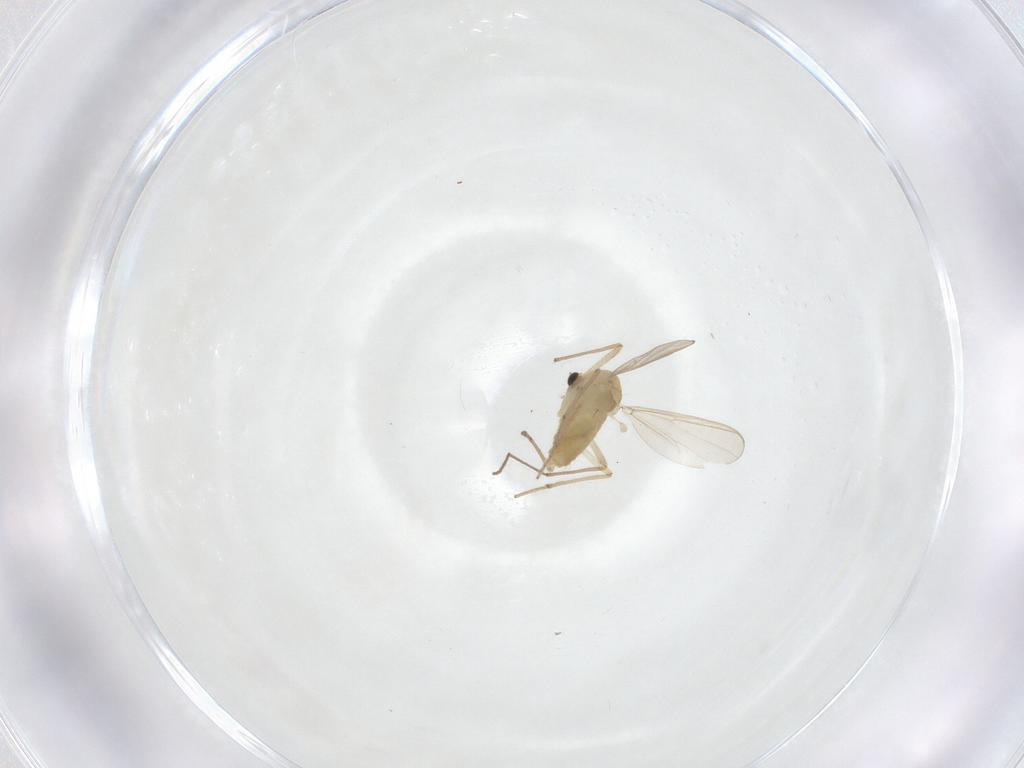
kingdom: Animalia
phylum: Arthropoda
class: Insecta
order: Diptera
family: Chironomidae
